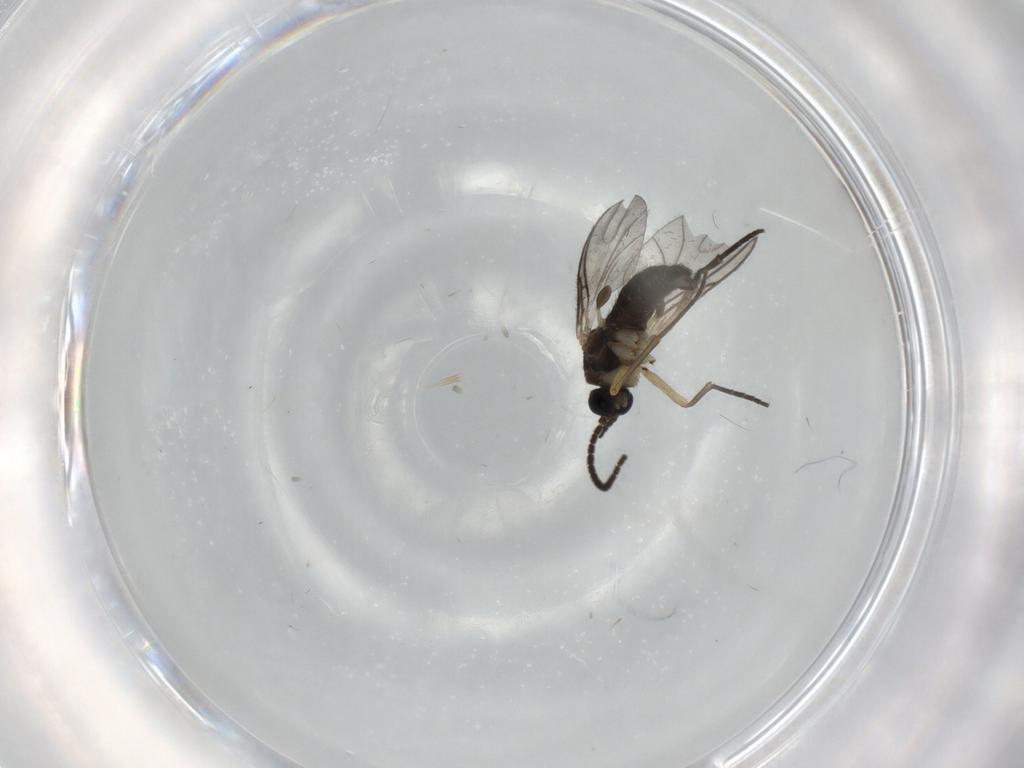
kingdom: Animalia
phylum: Arthropoda
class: Insecta
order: Diptera
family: Sciaridae
